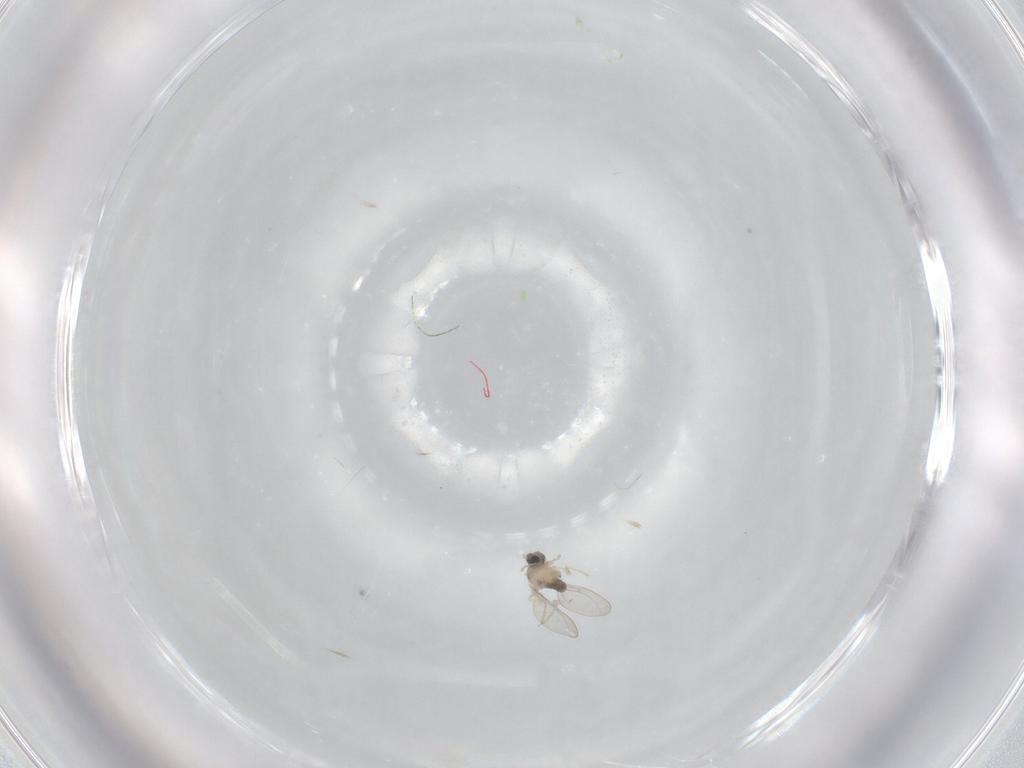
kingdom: Animalia
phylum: Arthropoda
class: Insecta
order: Diptera
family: Cecidomyiidae
